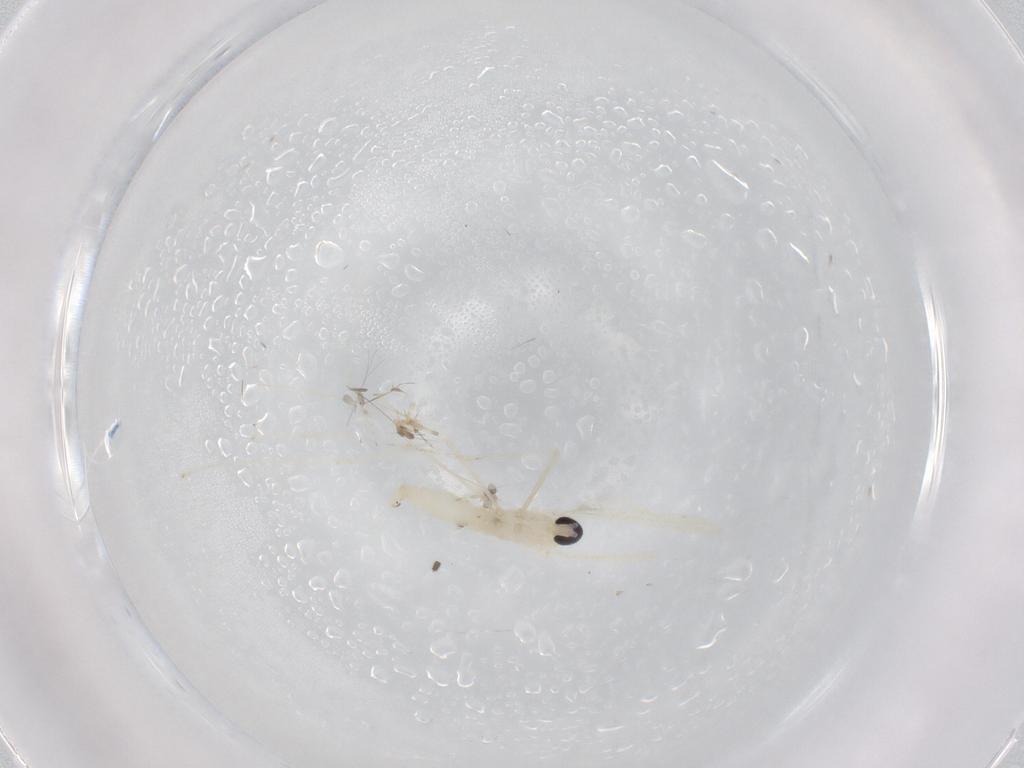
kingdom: Animalia
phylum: Arthropoda
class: Insecta
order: Diptera
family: Cecidomyiidae
